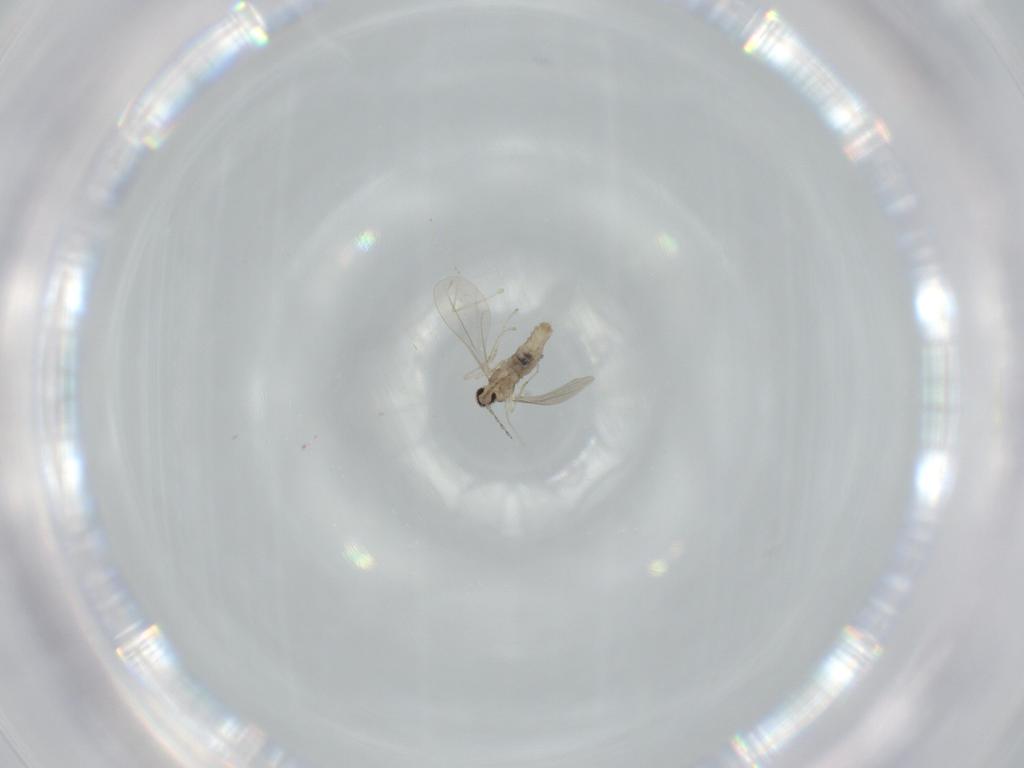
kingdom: Animalia
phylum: Arthropoda
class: Insecta
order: Diptera
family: Cecidomyiidae
